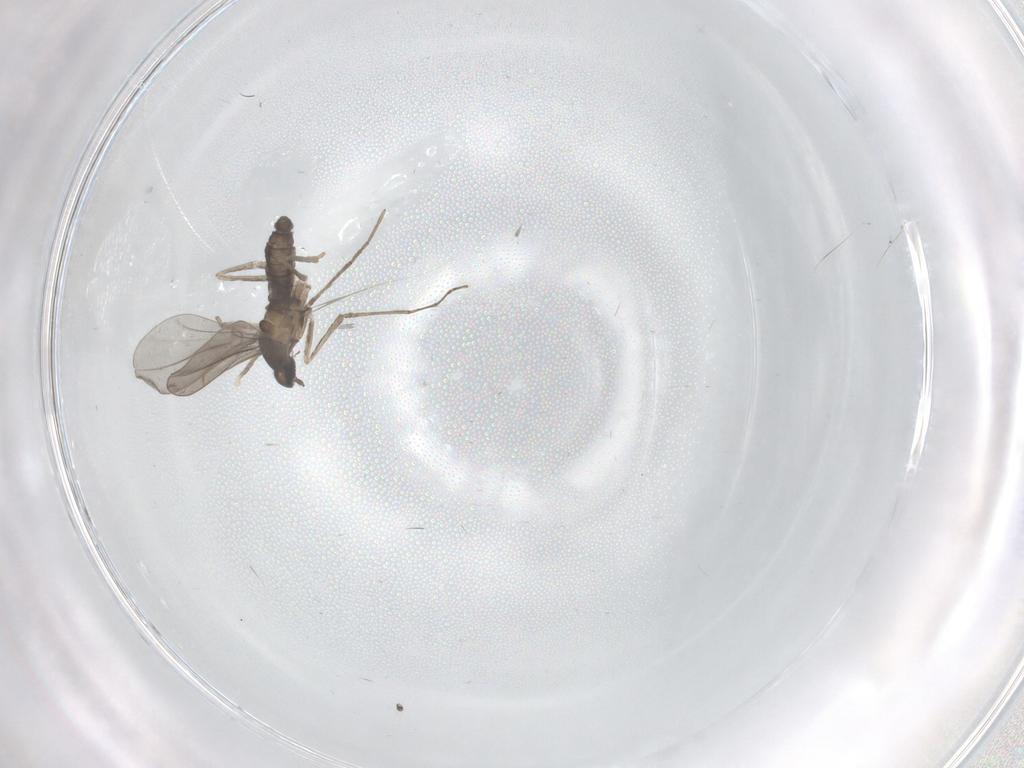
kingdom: Animalia
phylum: Arthropoda
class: Insecta
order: Diptera
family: Cecidomyiidae
